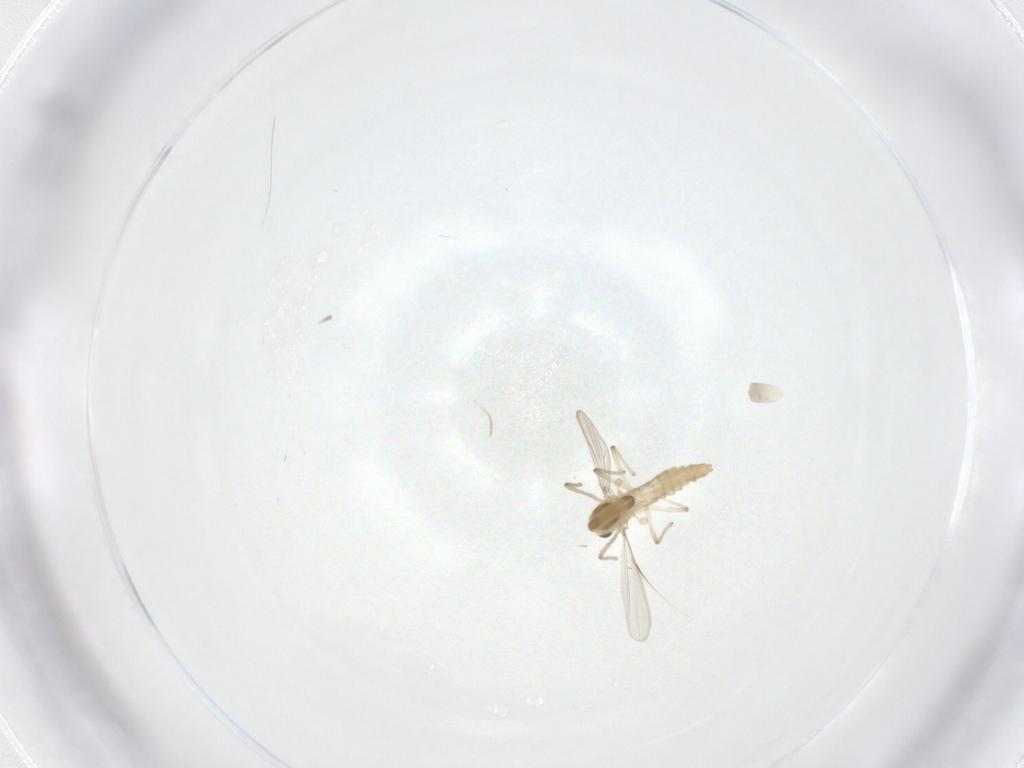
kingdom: Animalia
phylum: Arthropoda
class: Insecta
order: Diptera
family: Chironomidae
